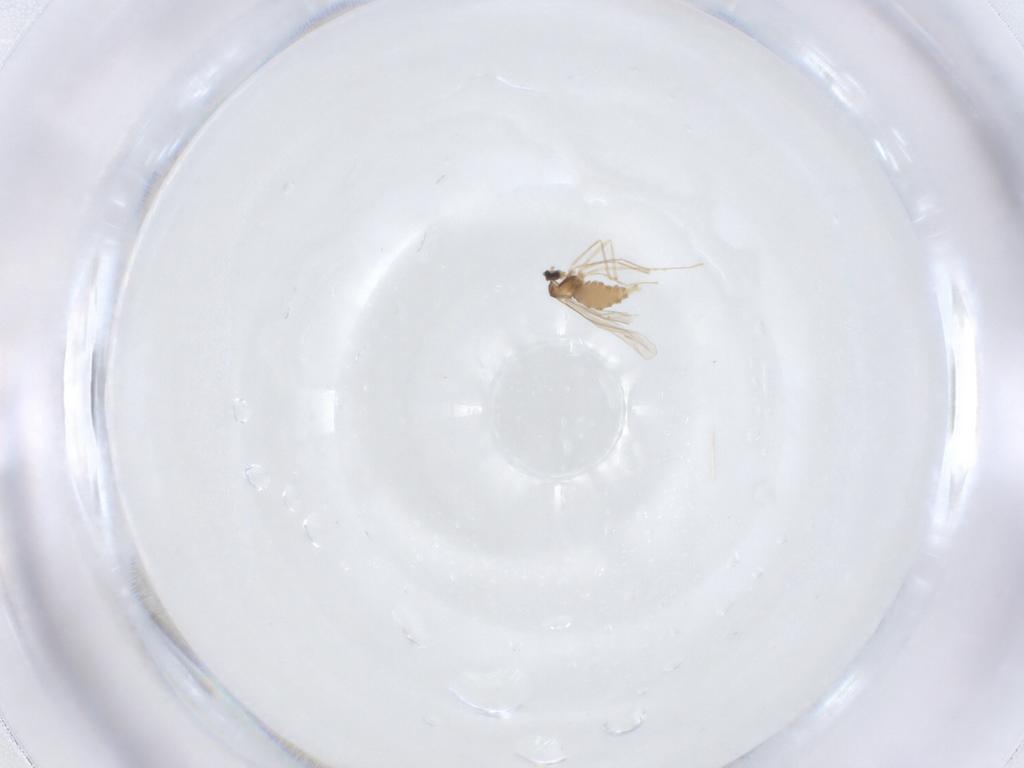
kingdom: Animalia
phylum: Arthropoda
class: Insecta
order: Diptera
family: Cecidomyiidae
